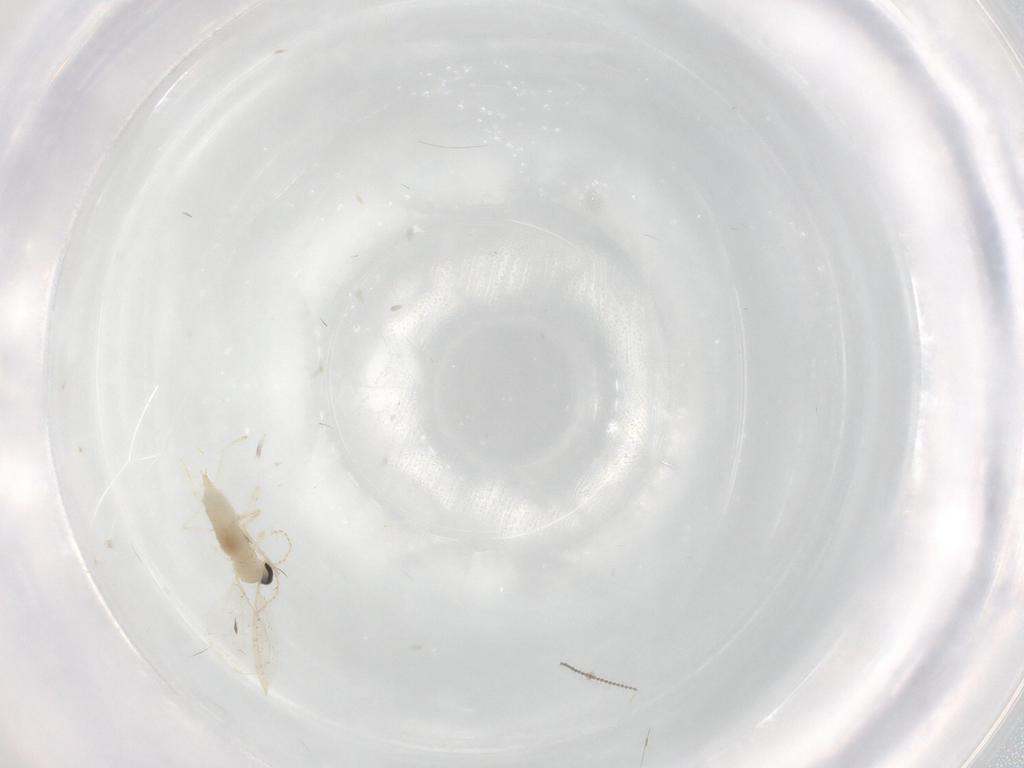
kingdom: Animalia
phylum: Arthropoda
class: Insecta
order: Diptera
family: Cecidomyiidae
